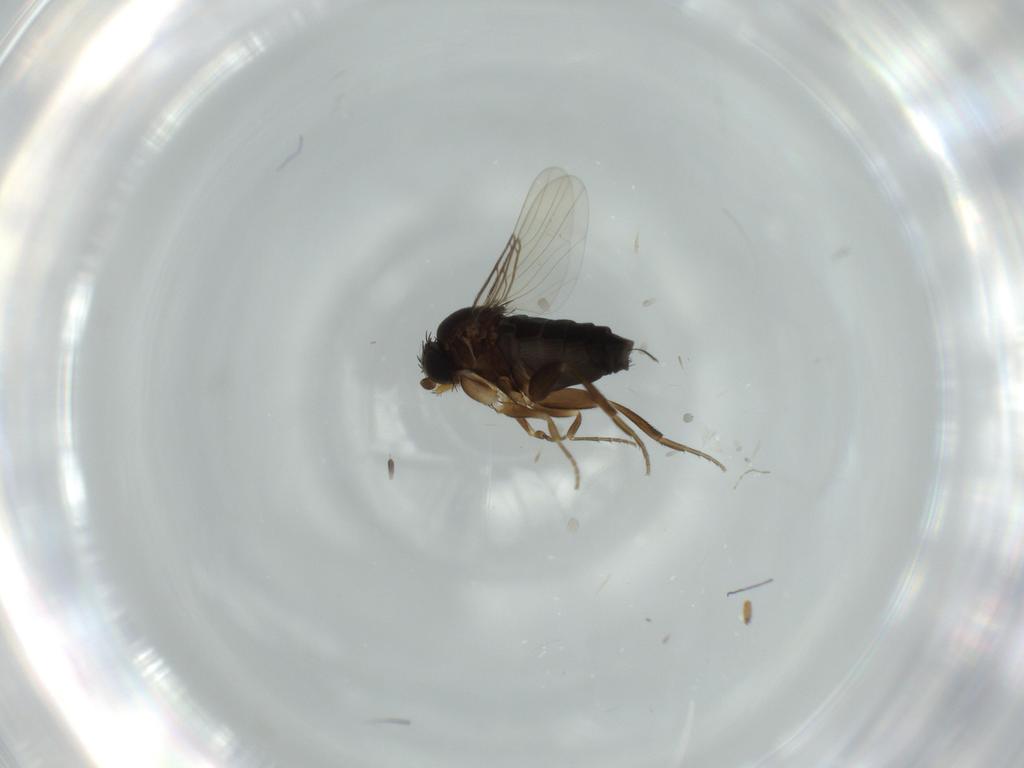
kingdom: Animalia
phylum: Arthropoda
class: Insecta
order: Diptera
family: Phoridae
